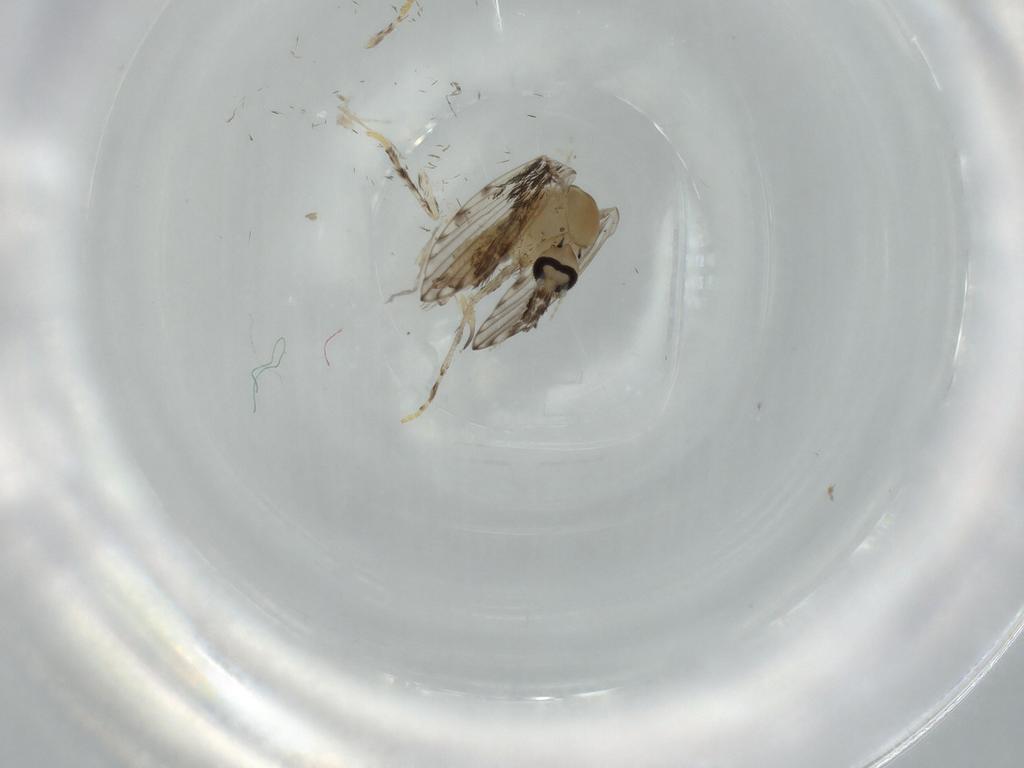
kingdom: Animalia
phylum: Arthropoda
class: Insecta
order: Diptera
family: Psychodidae
